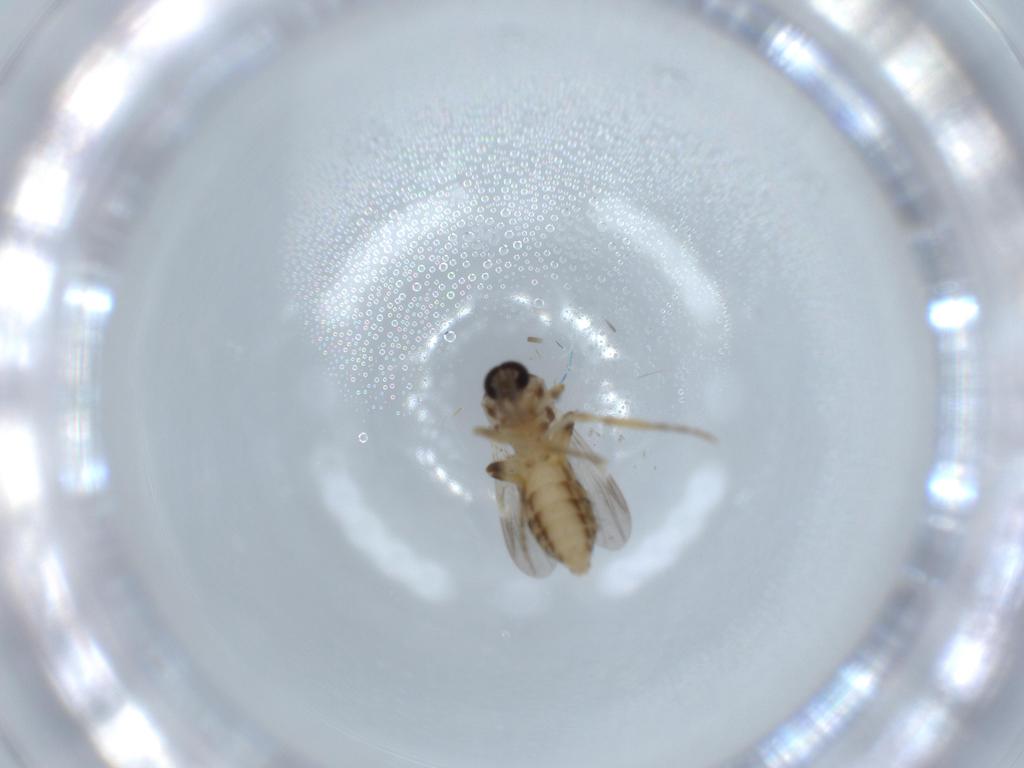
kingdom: Animalia
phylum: Arthropoda
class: Insecta
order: Diptera
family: Ceratopogonidae
